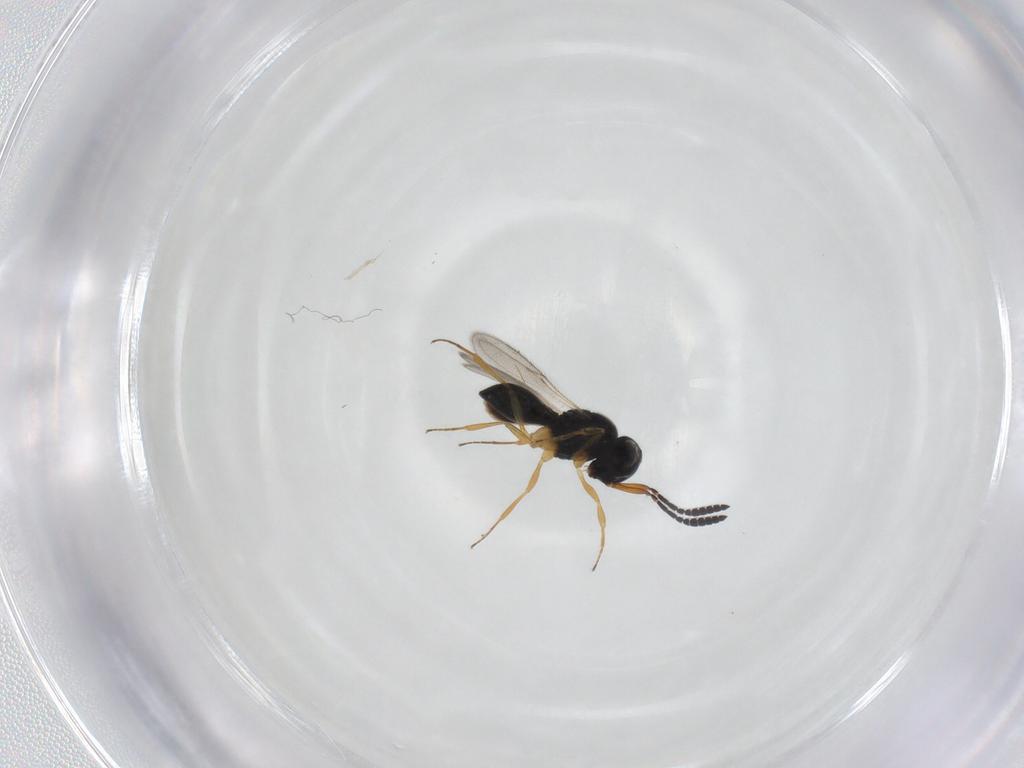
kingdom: Animalia
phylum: Arthropoda
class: Insecta
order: Hymenoptera
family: Scelionidae
